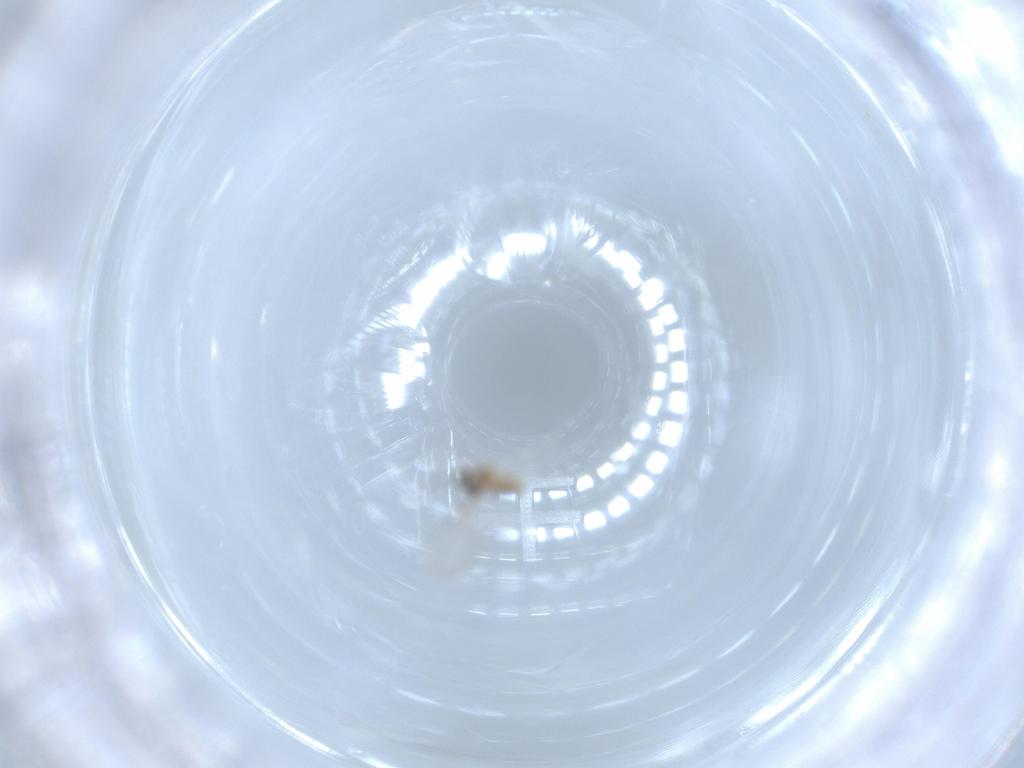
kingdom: Animalia
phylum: Arthropoda
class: Insecta
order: Diptera
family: Cecidomyiidae
